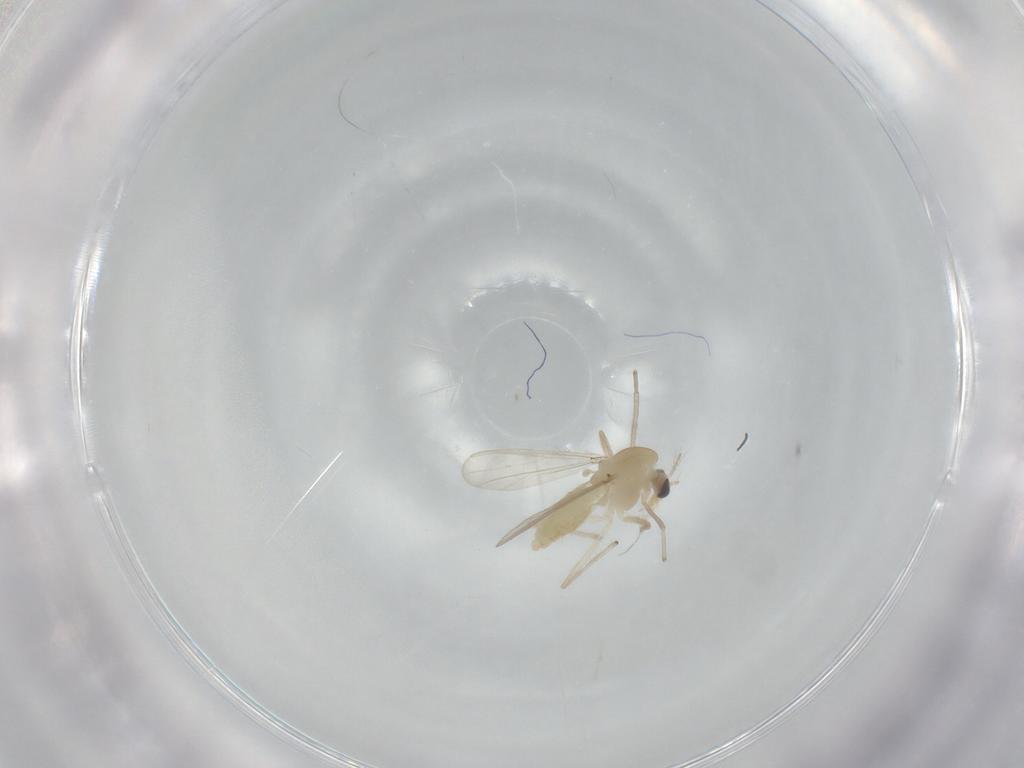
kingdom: Animalia
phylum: Arthropoda
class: Insecta
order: Diptera
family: Chironomidae
